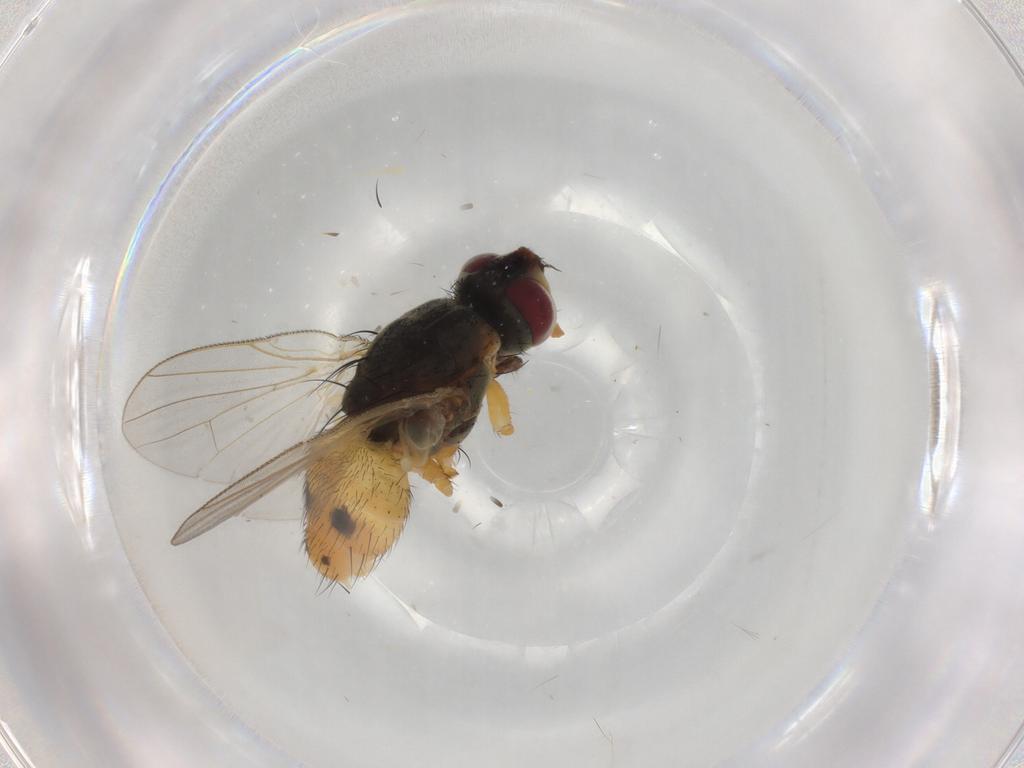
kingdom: Animalia
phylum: Arthropoda
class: Insecta
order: Diptera
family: Muscidae
